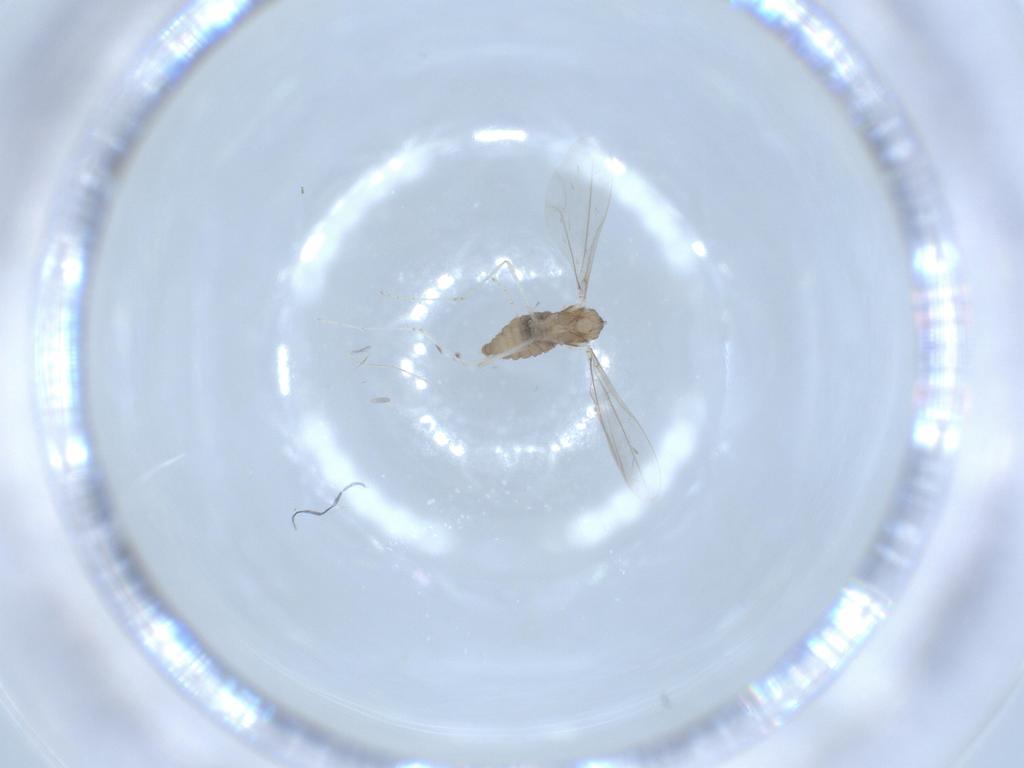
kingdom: Animalia
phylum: Arthropoda
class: Insecta
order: Diptera
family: Cecidomyiidae
